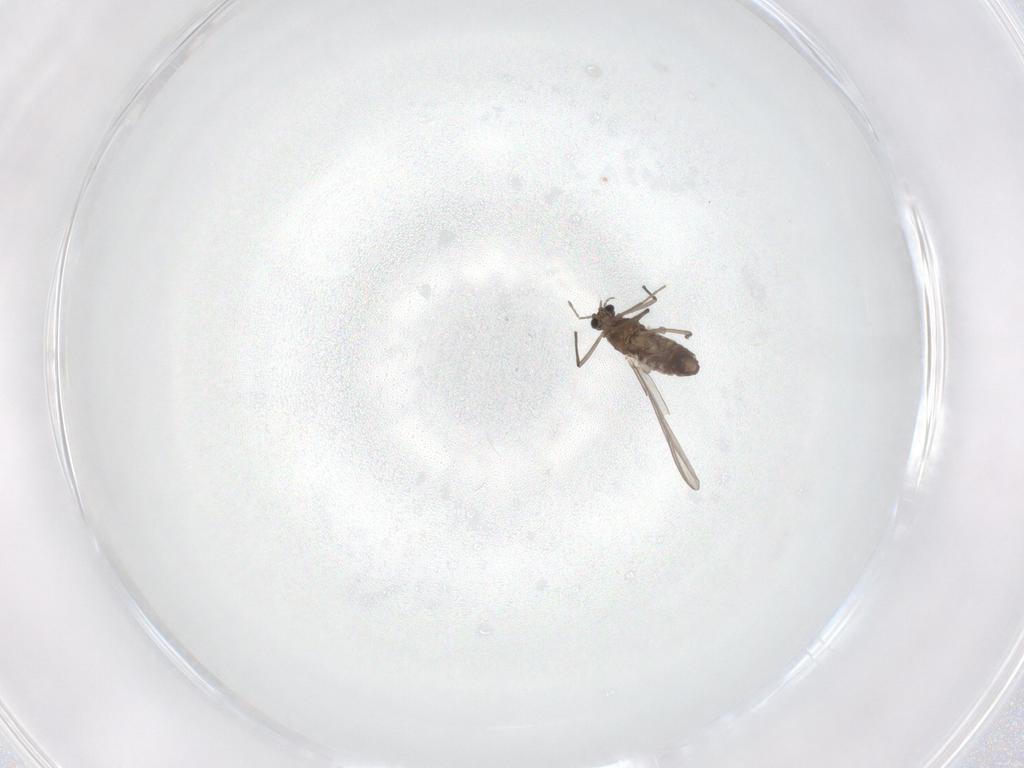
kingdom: Animalia
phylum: Arthropoda
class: Insecta
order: Diptera
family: Chironomidae
